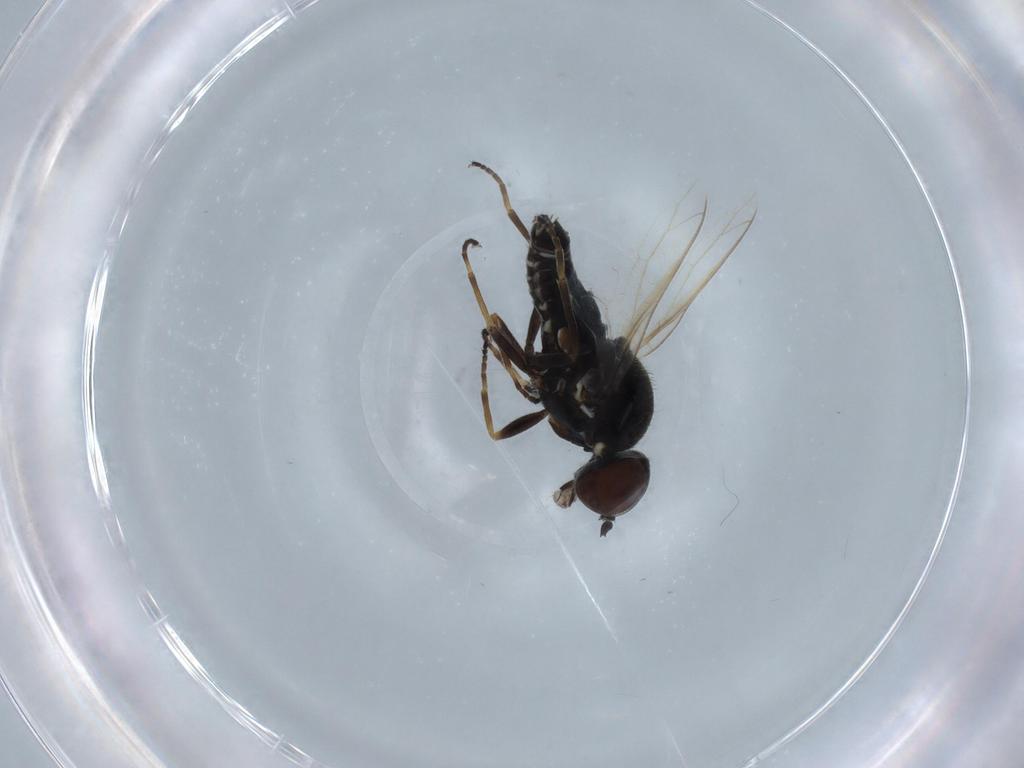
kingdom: Animalia
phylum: Arthropoda
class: Insecta
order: Diptera
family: Scenopinidae
